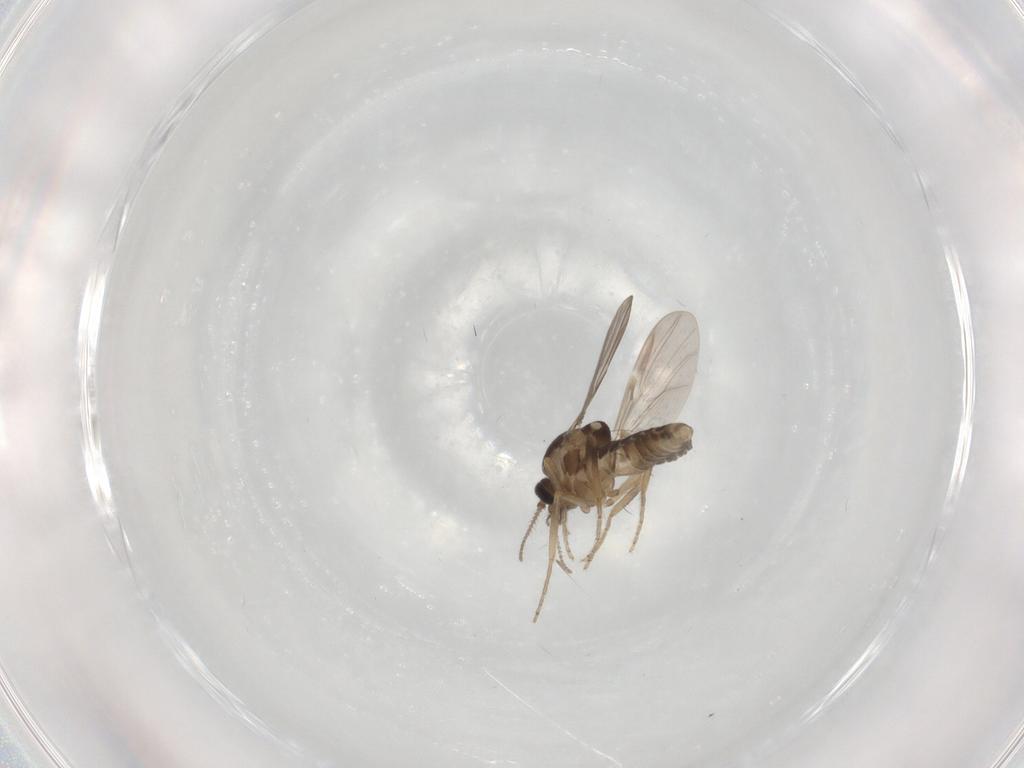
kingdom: Animalia
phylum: Arthropoda
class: Insecta
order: Diptera
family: Ceratopogonidae
